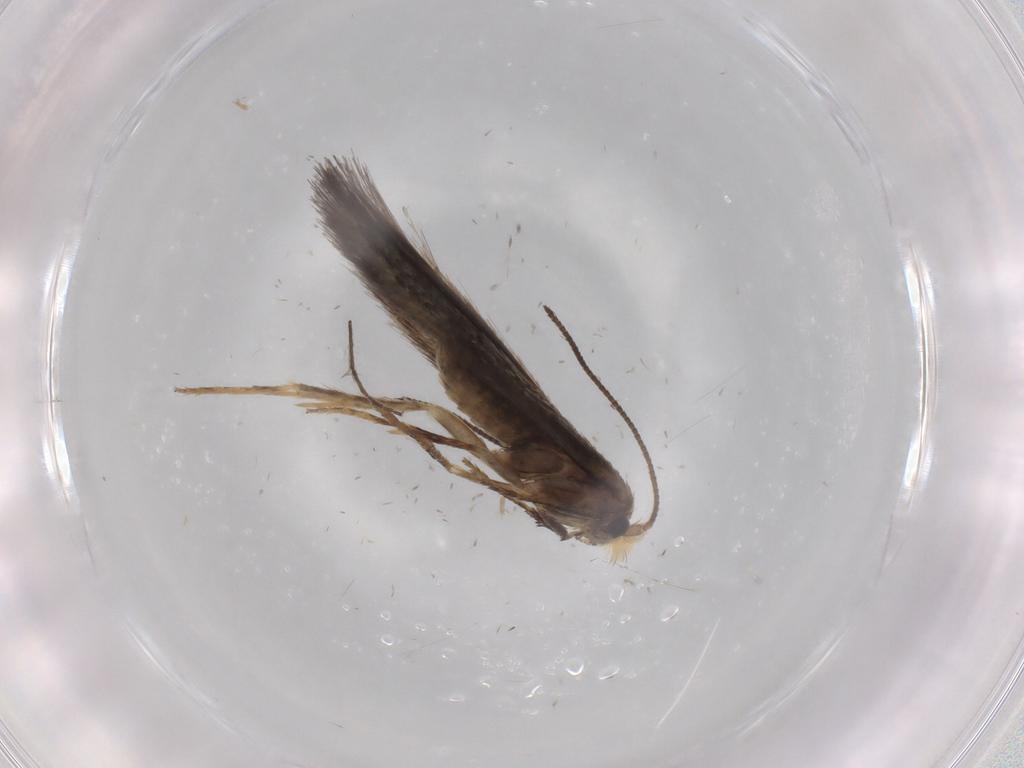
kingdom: Animalia
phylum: Arthropoda
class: Insecta
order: Lepidoptera
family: Nepticulidae
